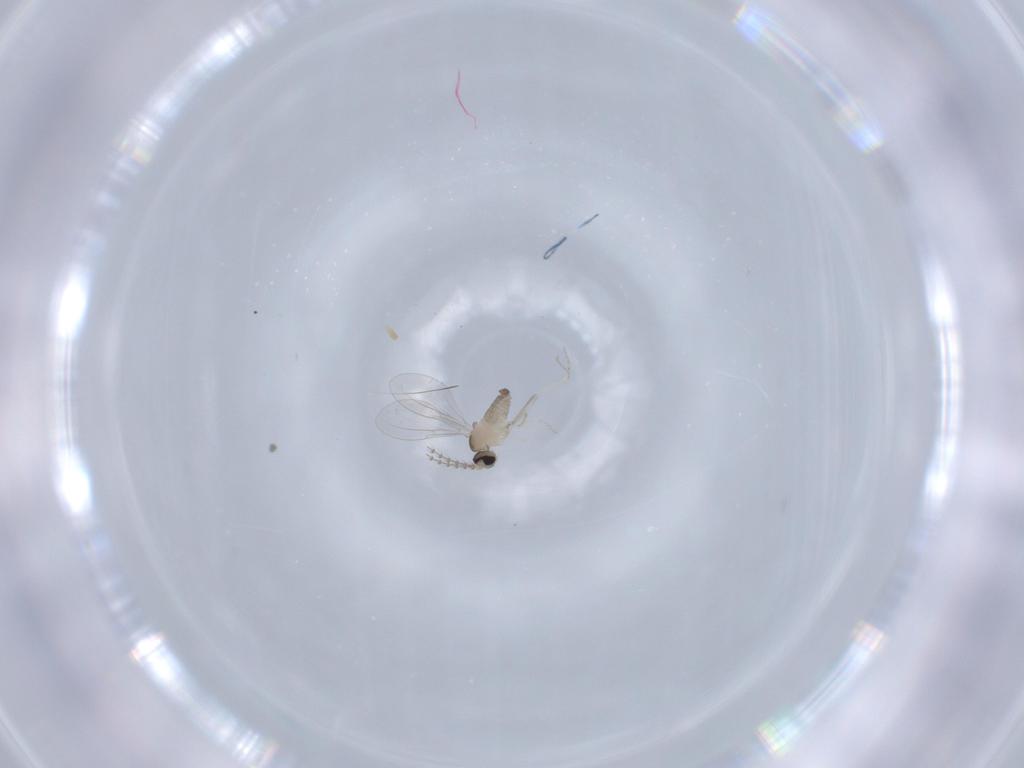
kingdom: Animalia
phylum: Arthropoda
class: Insecta
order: Diptera
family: Cecidomyiidae
